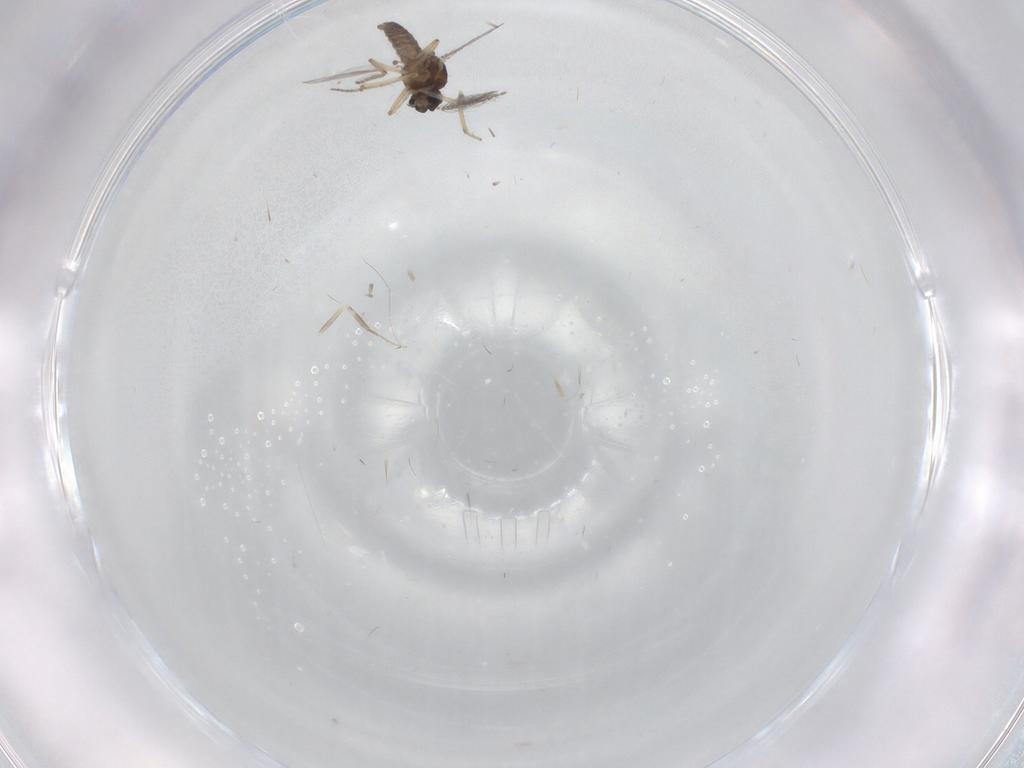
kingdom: Animalia
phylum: Arthropoda
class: Insecta
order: Diptera
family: Ceratopogonidae
